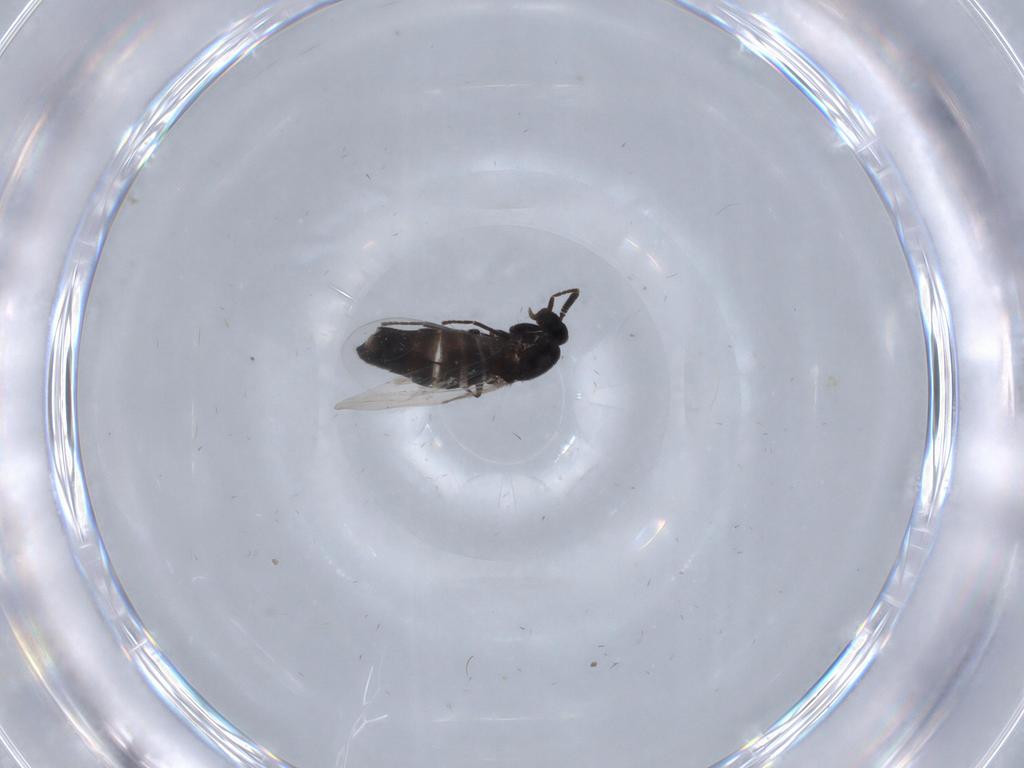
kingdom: Animalia
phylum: Arthropoda
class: Insecta
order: Diptera
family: Scatopsidae
